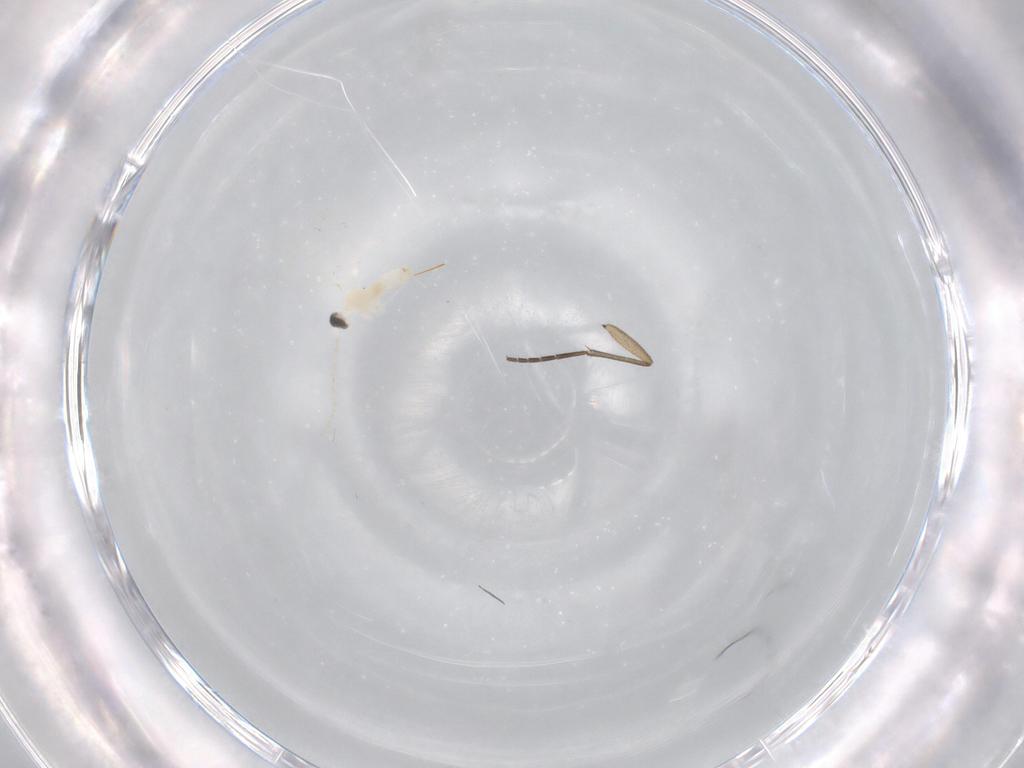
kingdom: Animalia
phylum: Arthropoda
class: Insecta
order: Diptera
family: Sciaridae
